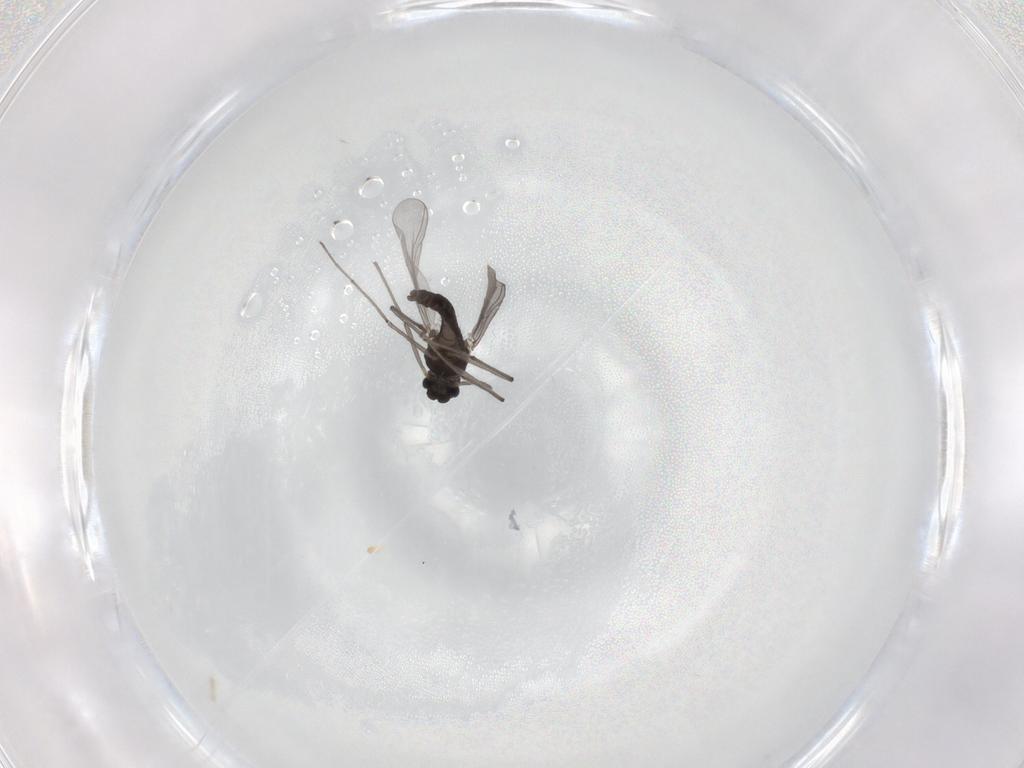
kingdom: Animalia
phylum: Arthropoda
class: Insecta
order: Diptera
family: Chironomidae
